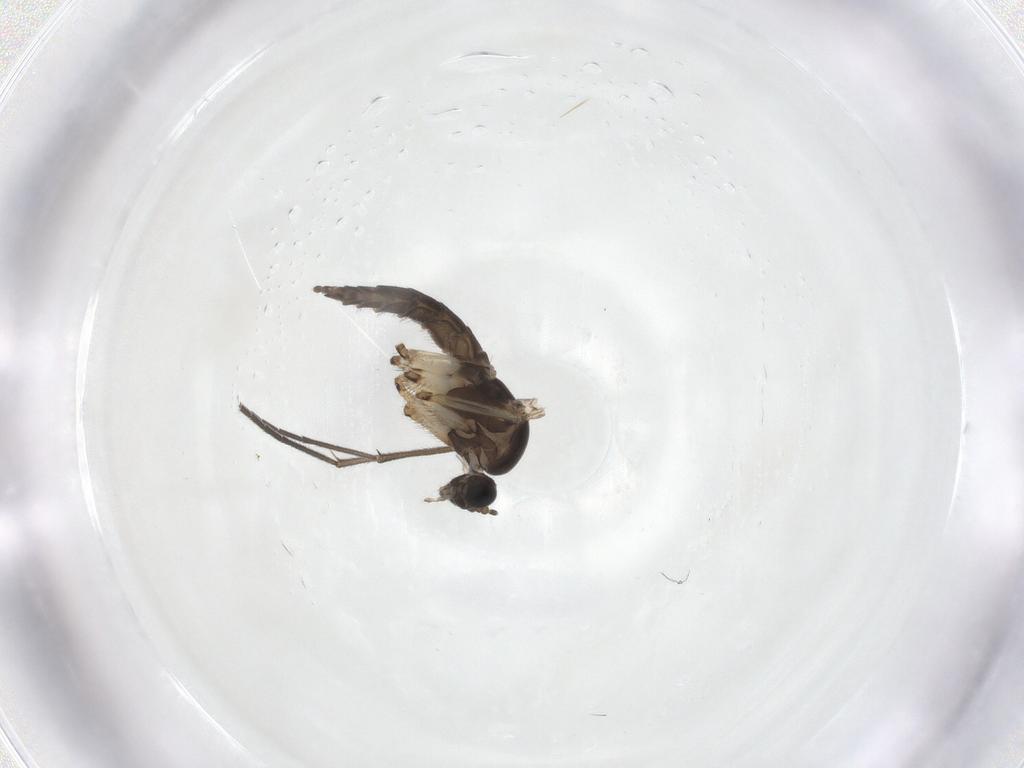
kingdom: Animalia
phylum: Arthropoda
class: Insecta
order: Diptera
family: Sciaridae
